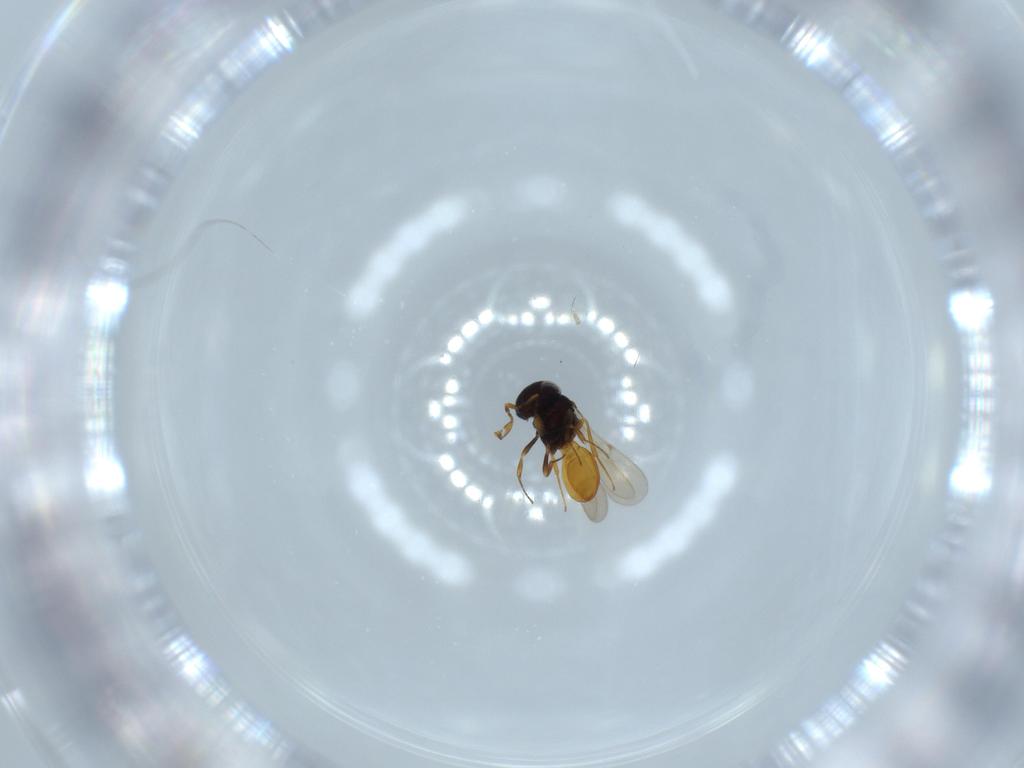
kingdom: Animalia
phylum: Arthropoda
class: Insecta
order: Hymenoptera
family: Scelionidae
